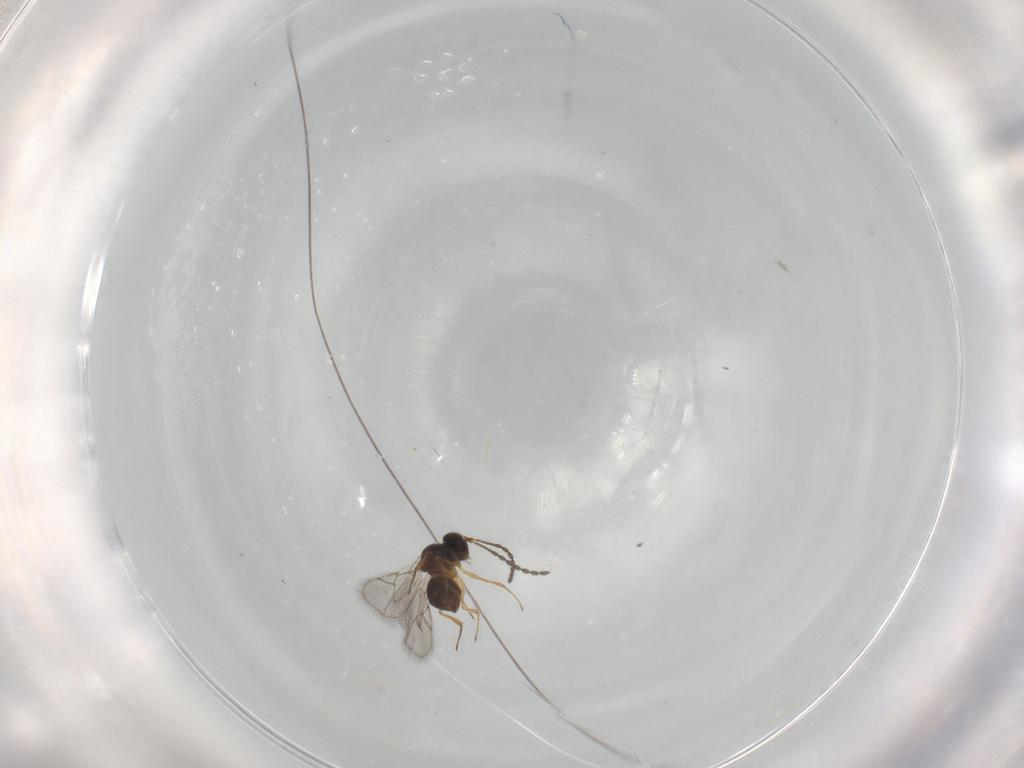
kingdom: Animalia
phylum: Arthropoda
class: Insecta
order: Hymenoptera
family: Figitidae
